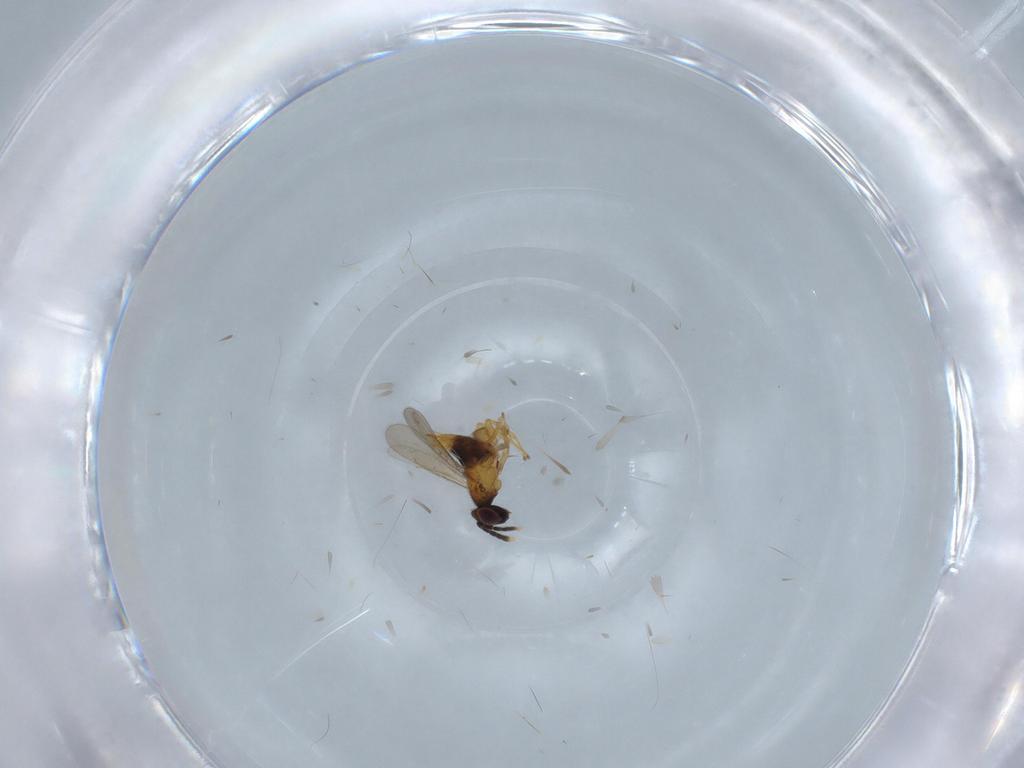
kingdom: Animalia
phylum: Arthropoda
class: Insecta
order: Hymenoptera
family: Aphelinidae
